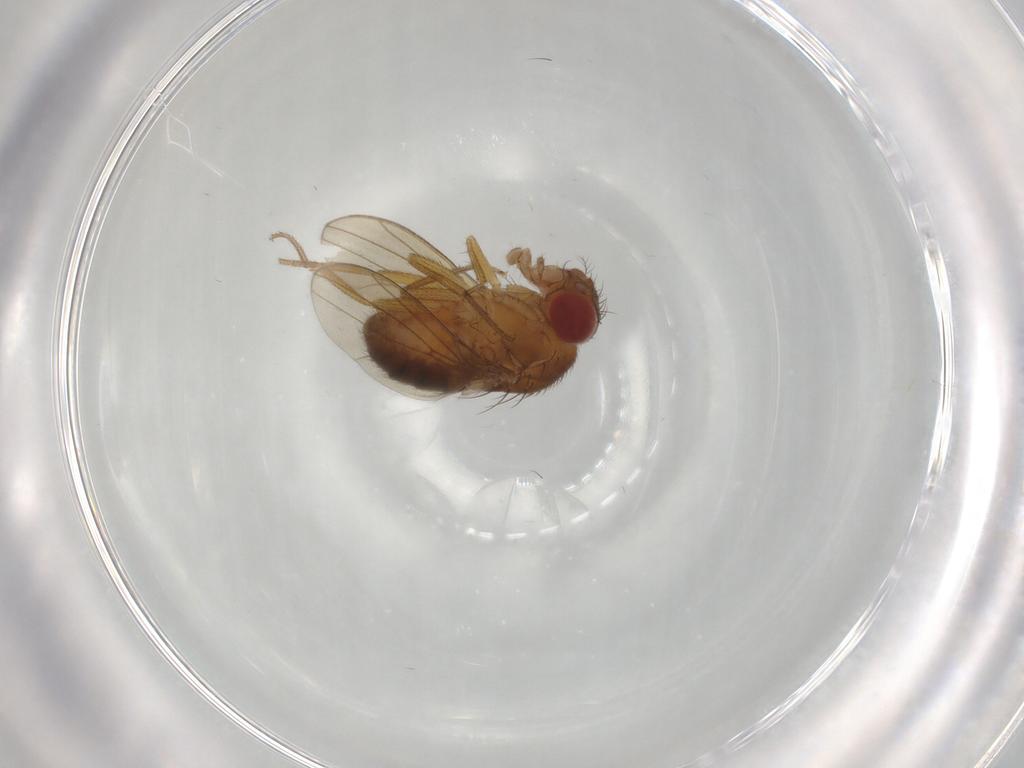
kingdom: Animalia
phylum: Arthropoda
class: Insecta
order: Diptera
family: Drosophilidae
